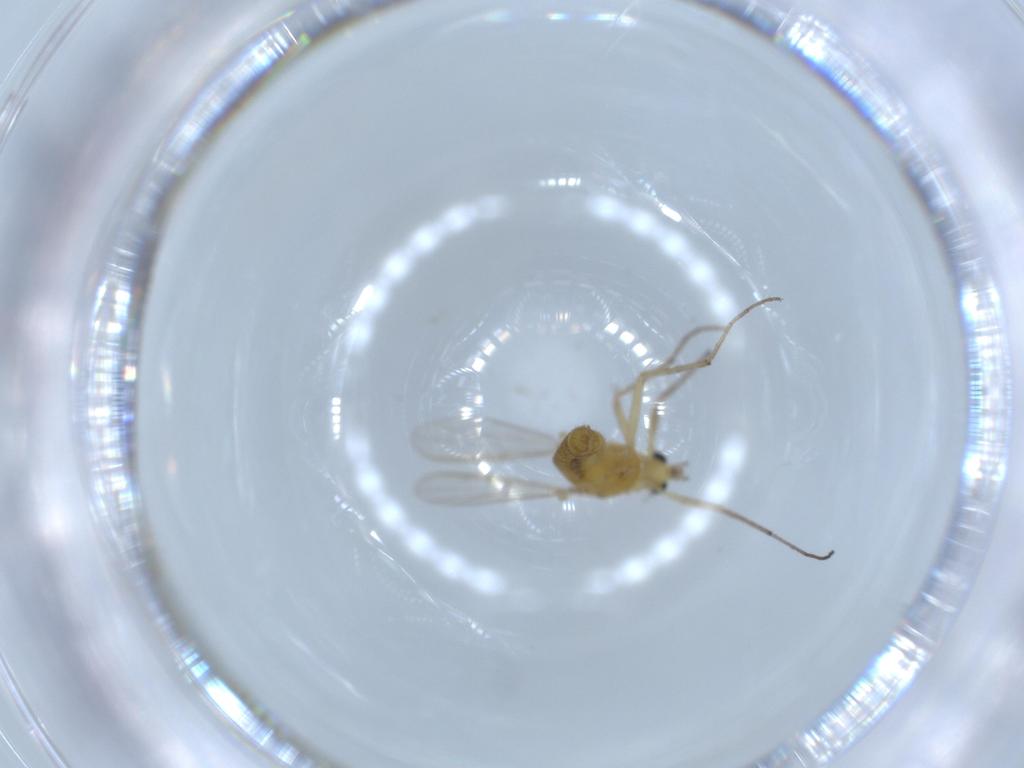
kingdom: Animalia
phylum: Arthropoda
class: Insecta
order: Diptera
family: Chironomidae
